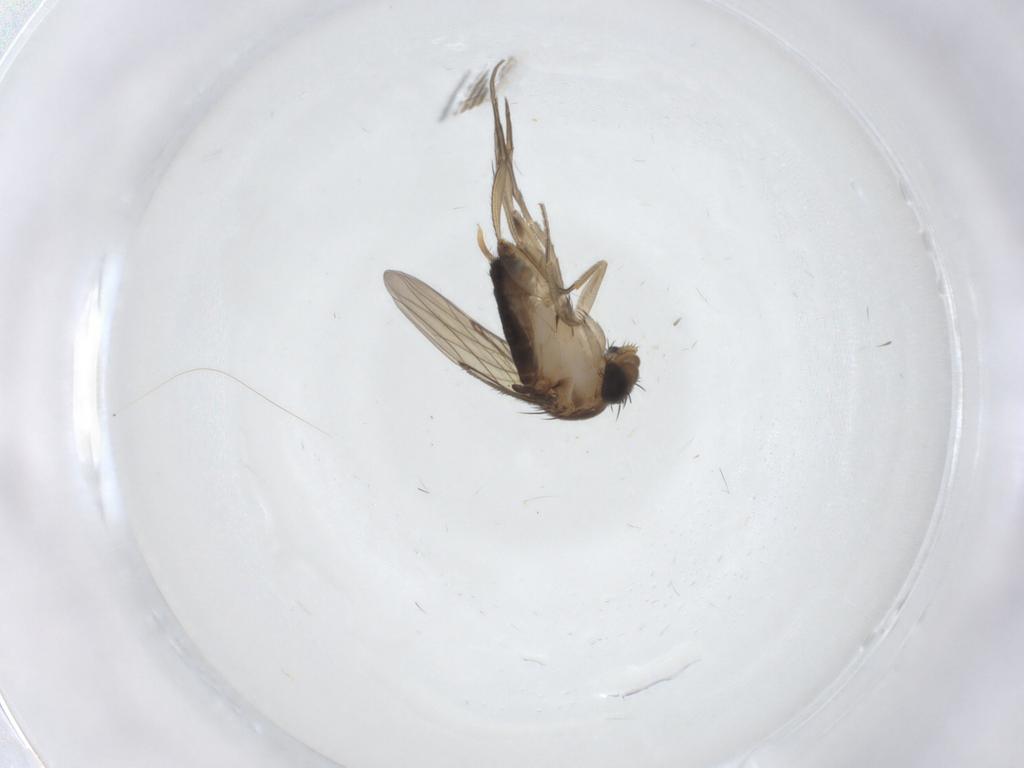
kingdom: Animalia
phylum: Arthropoda
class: Insecta
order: Diptera
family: Phoridae
